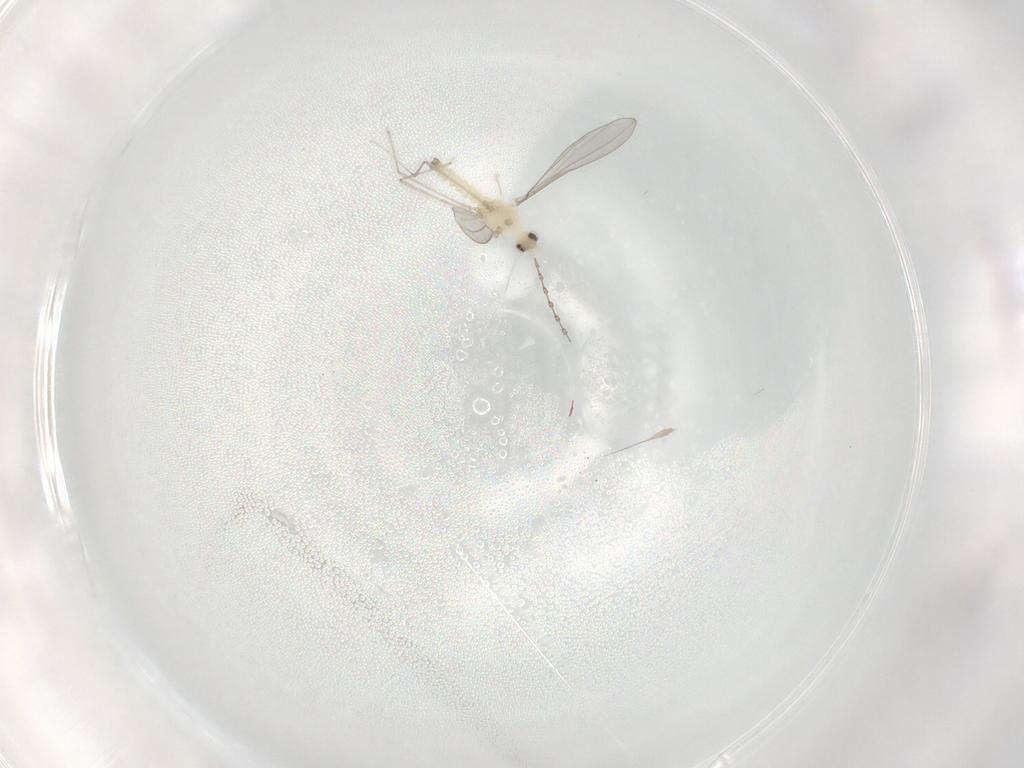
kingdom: Animalia
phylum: Arthropoda
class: Insecta
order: Diptera
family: Cecidomyiidae
